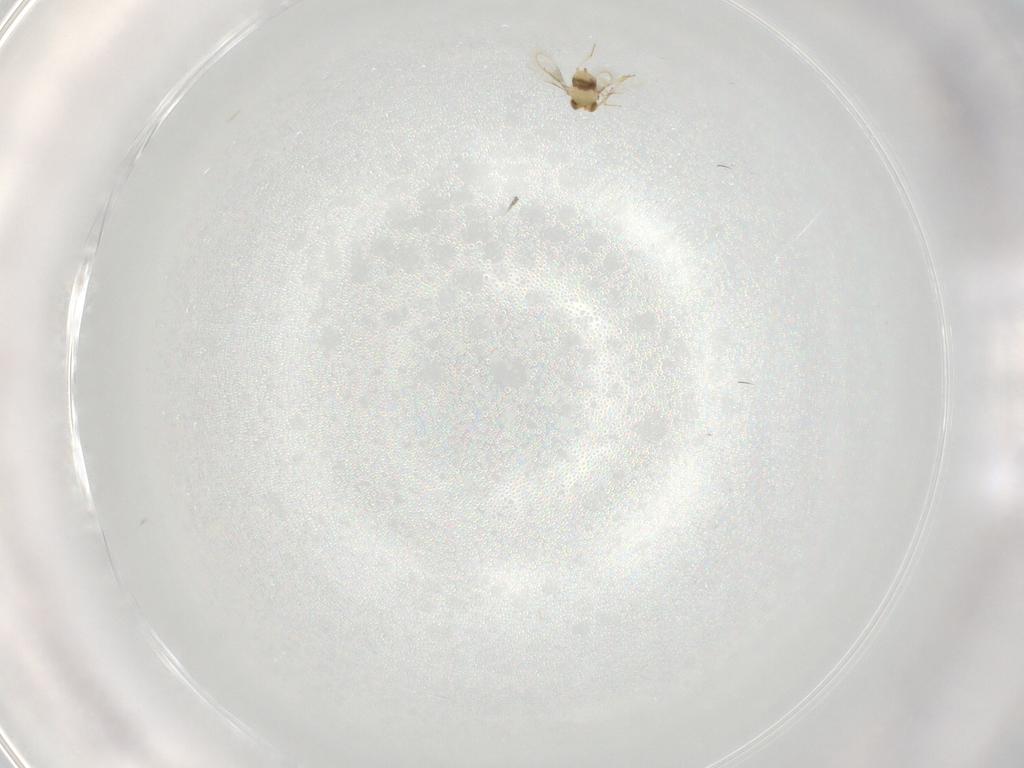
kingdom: Animalia
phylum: Arthropoda
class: Insecta
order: Hymenoptera
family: Aphelinidae
